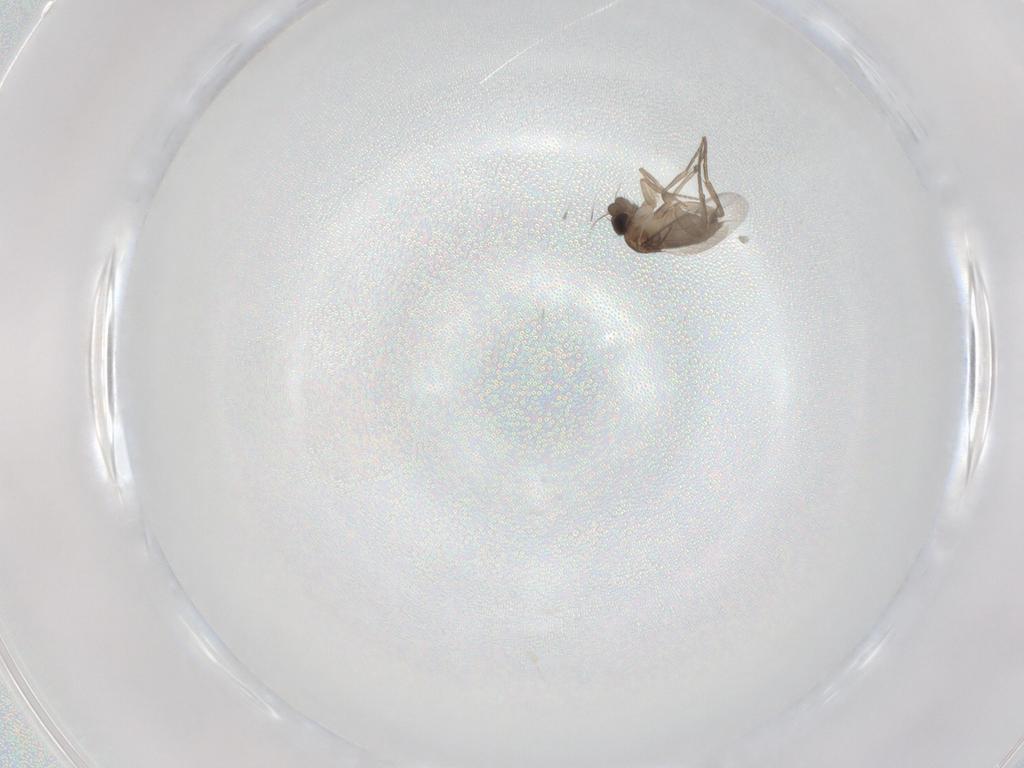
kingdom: Animalia
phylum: Arthropoda
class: Insecta
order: Diptera
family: Phoridae
